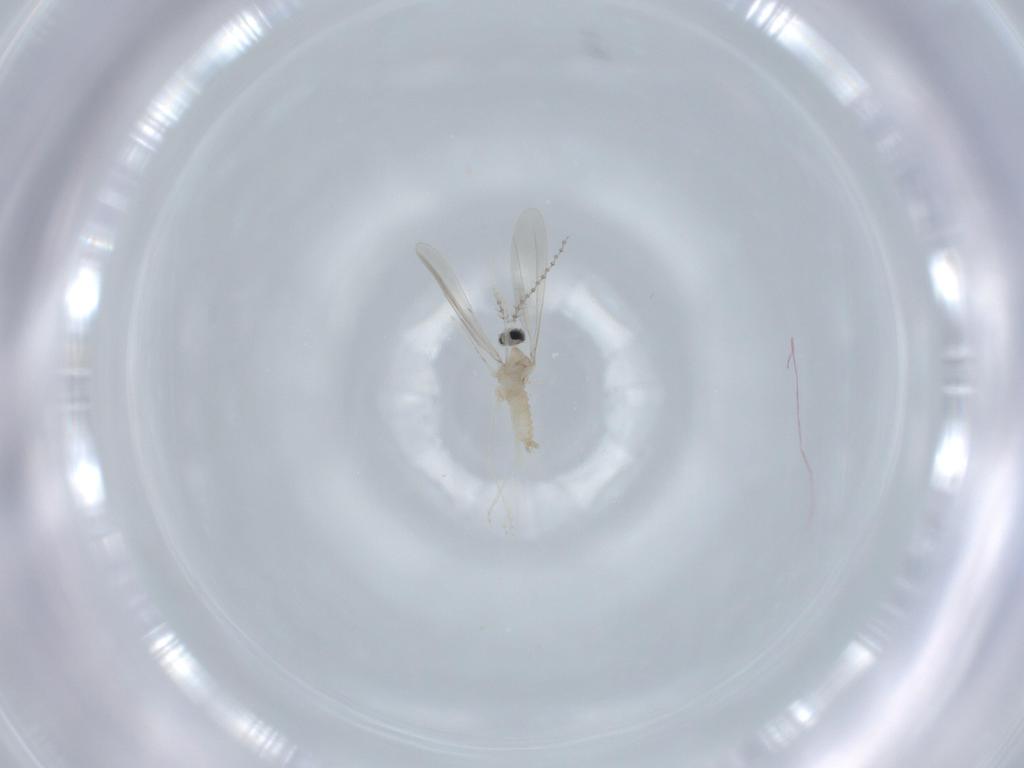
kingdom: Animalia
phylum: Arthropoda
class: Insecta
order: Diptera
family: Cecidomyiidae
